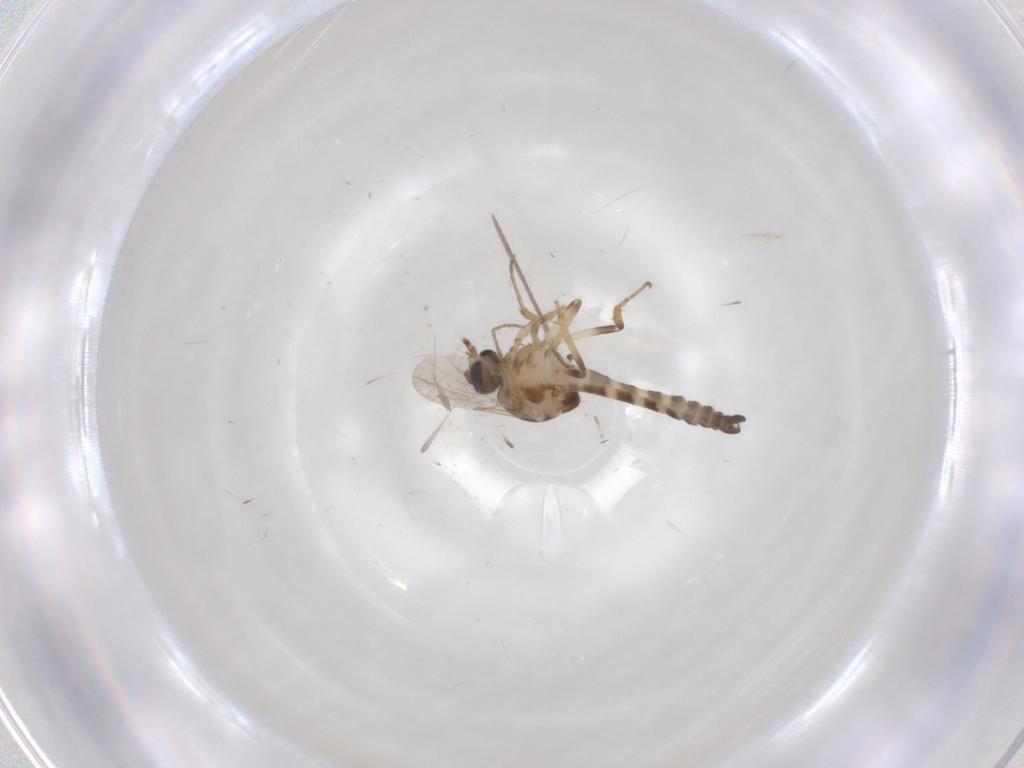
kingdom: Animalia
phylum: Arthropoda
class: Insecta
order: Diptera
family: Ceratopogonidae
